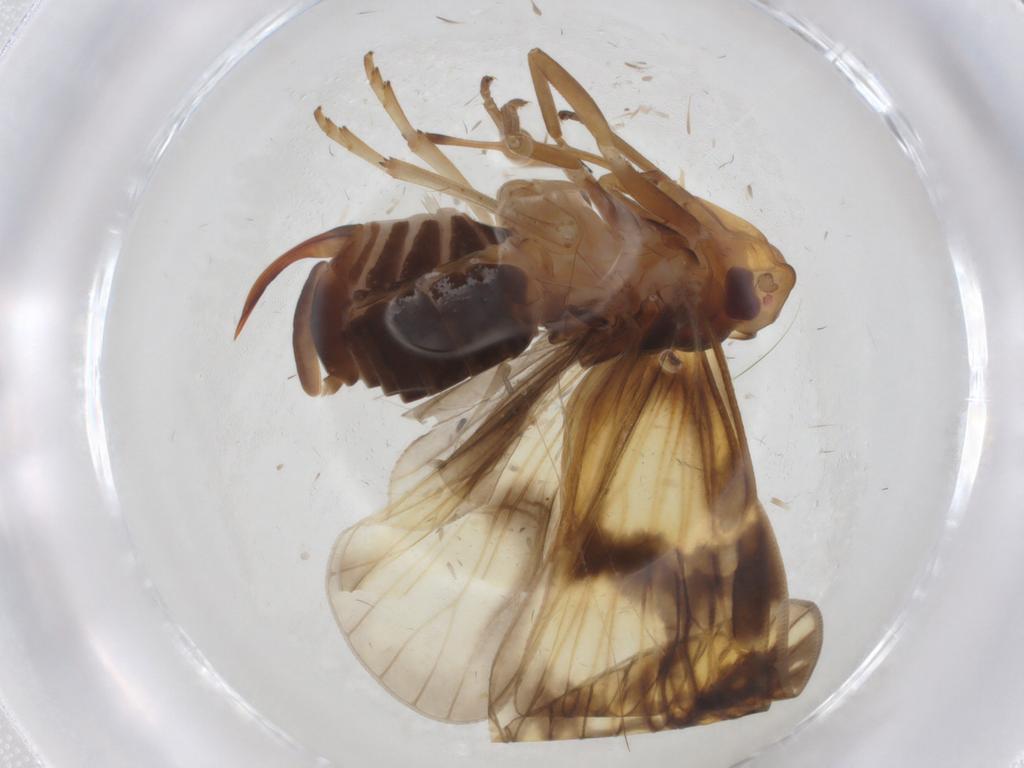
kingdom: Animalia
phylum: Arthropoda
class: Insecta
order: Hemiptera
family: Cixiidae
